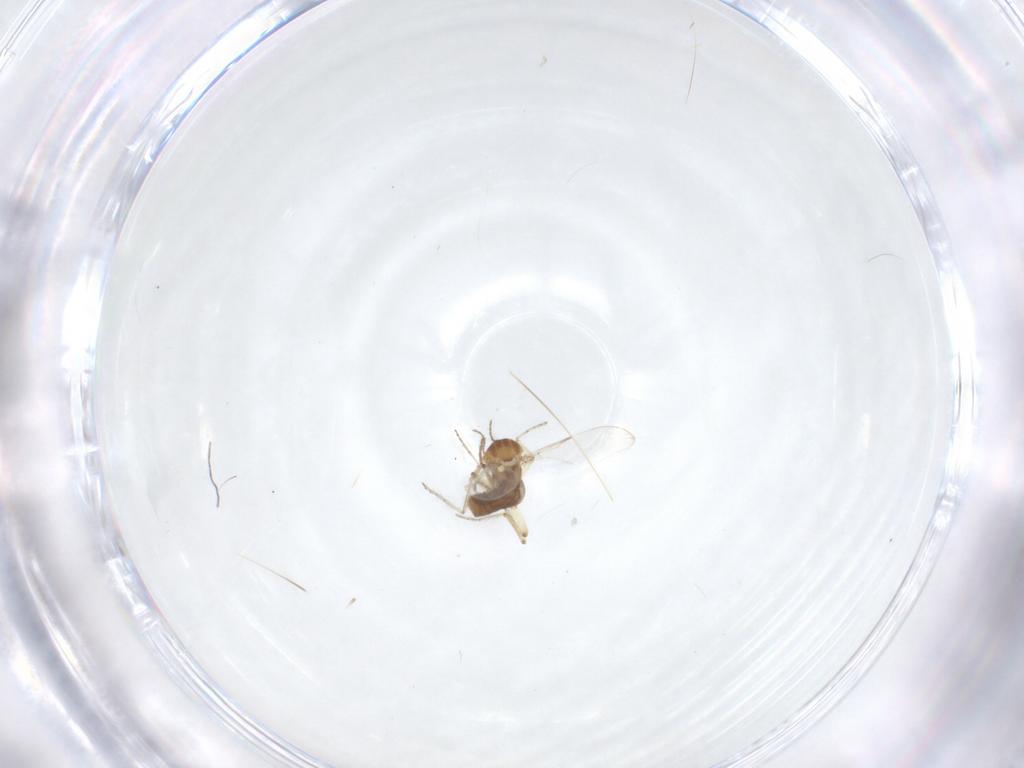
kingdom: Animalia
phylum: Arthropoda
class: Insecta
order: Diptera
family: Ceratopogonidae
